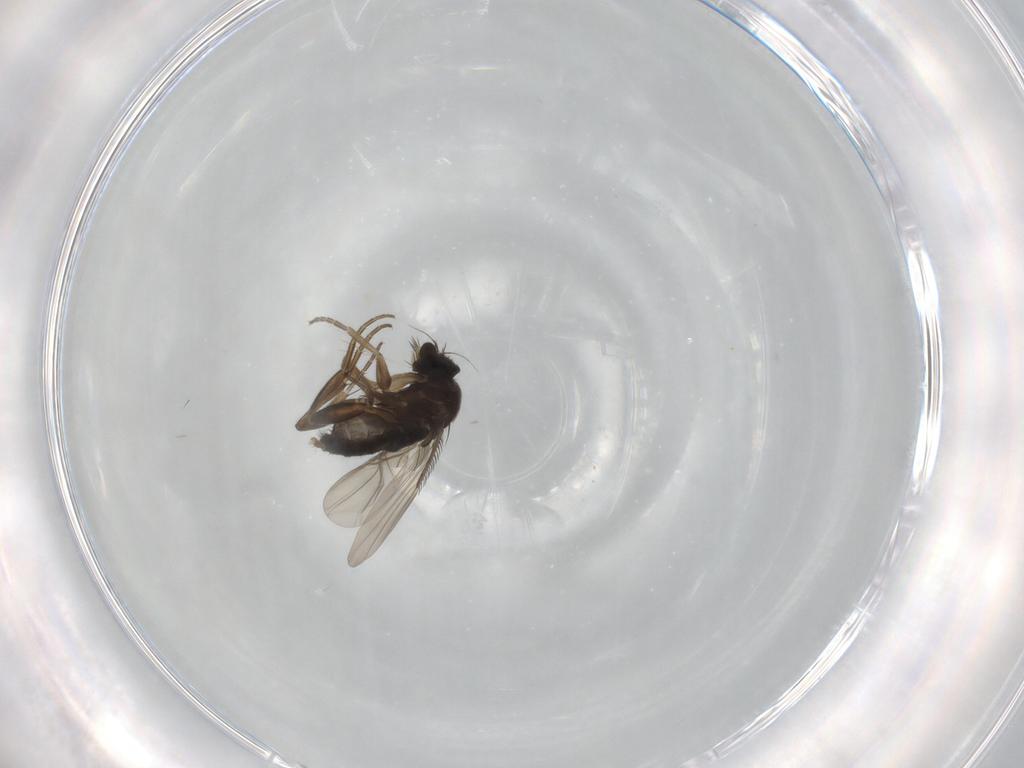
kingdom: Animalia
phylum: Arthropoda
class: Insecta
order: Diptera
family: Phoridae
